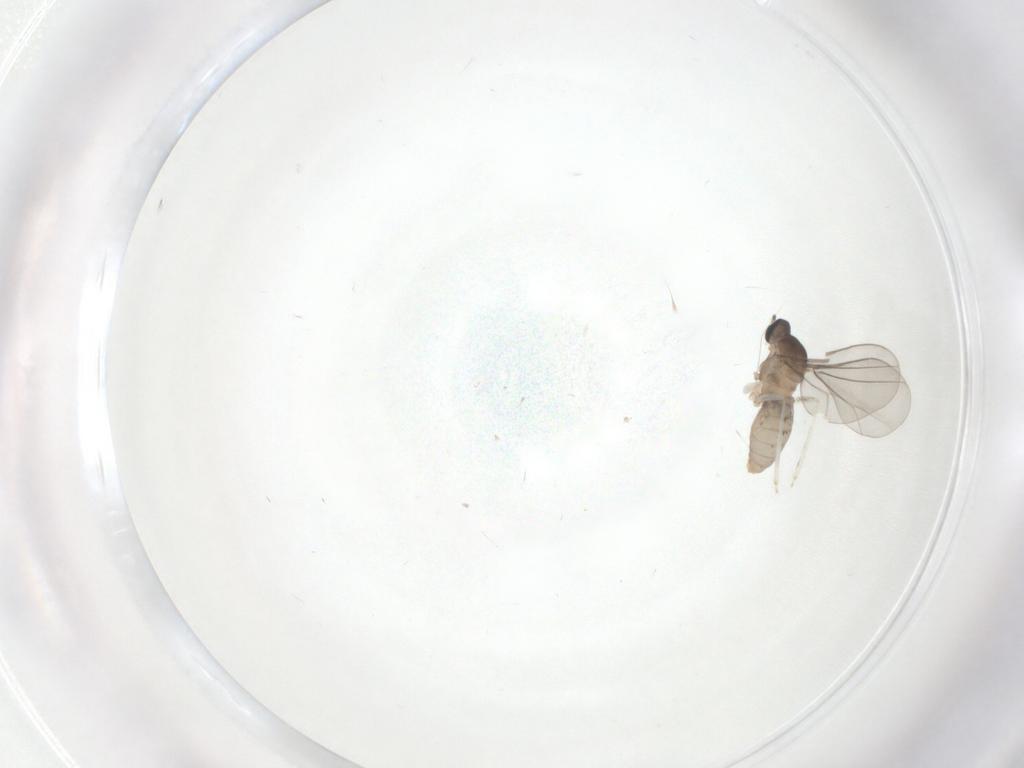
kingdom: Animalia
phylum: Arthropoda
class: Insecta
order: Diptera
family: Cecidomyiidae
